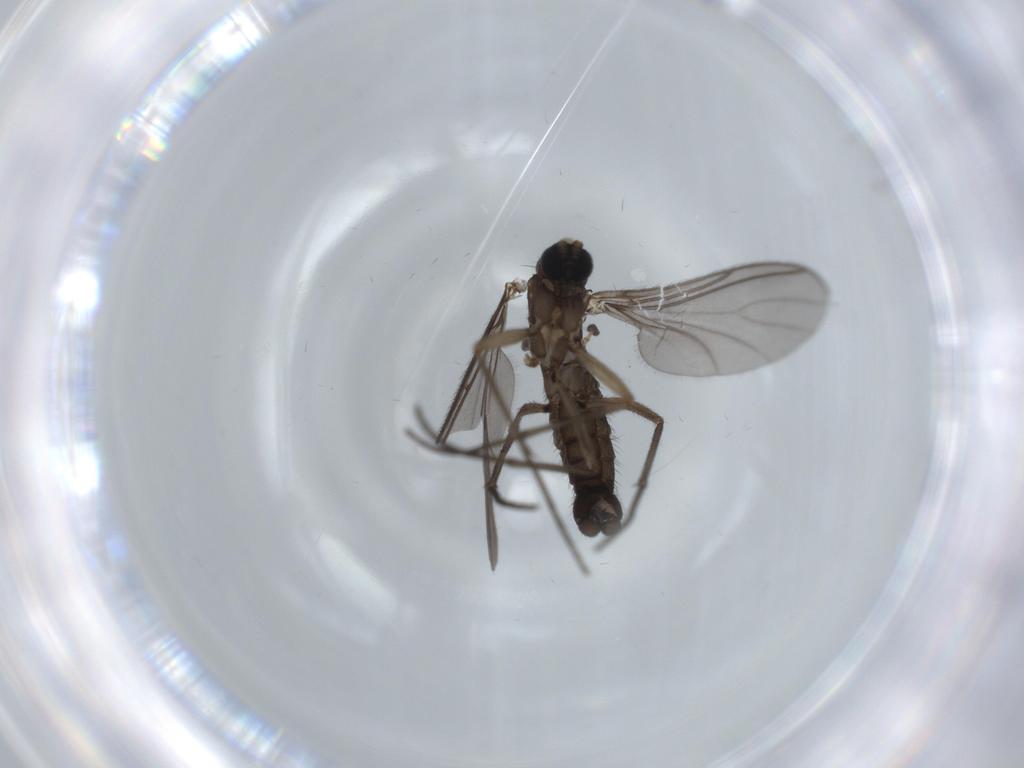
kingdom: Animalia
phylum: Arthropoda
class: Insecta
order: Diptera
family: Sciaridae
